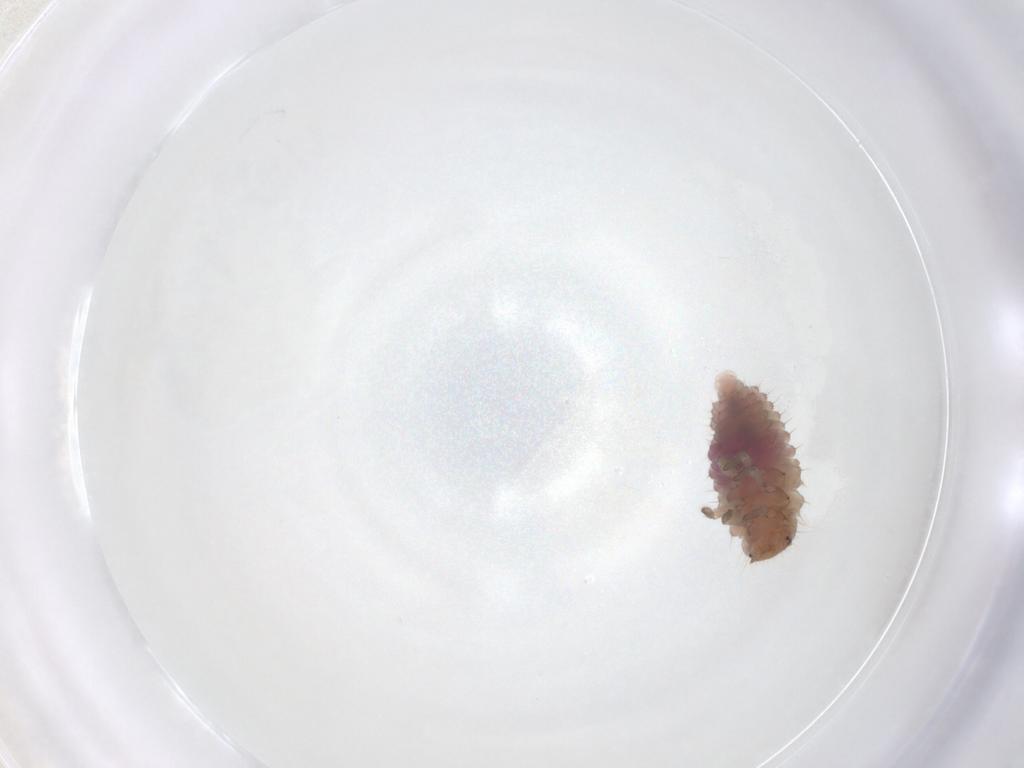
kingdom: Animalia
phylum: Arthropoda
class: Insecta
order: Coleoptera
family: Coccinellidae
